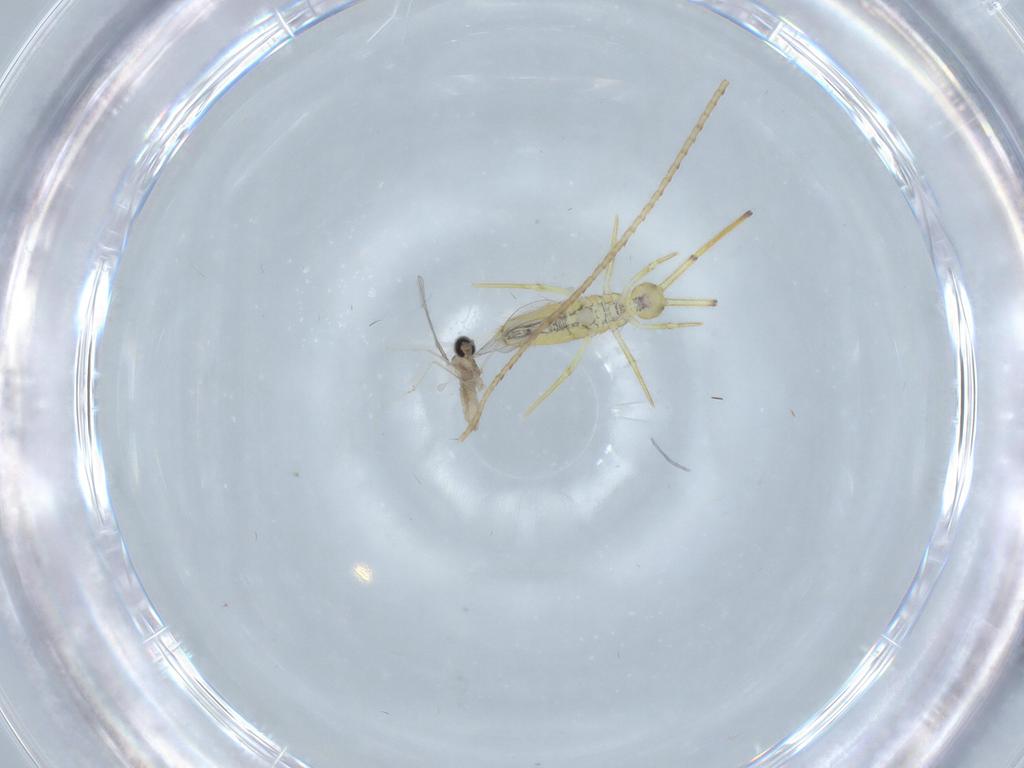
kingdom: Animalia
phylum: Arthropoda
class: Insecta
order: Diptera
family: Cecidomyiidae
